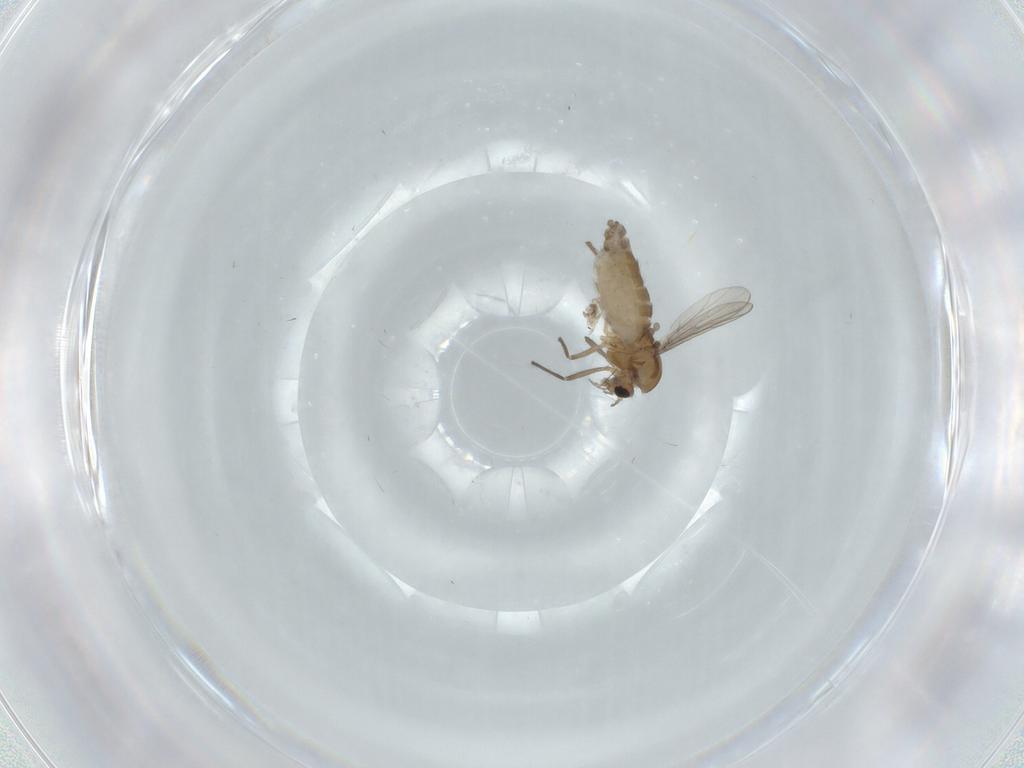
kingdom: Animalia
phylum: Arthropoda
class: Insecta
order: Diptera
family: Chironomidae
